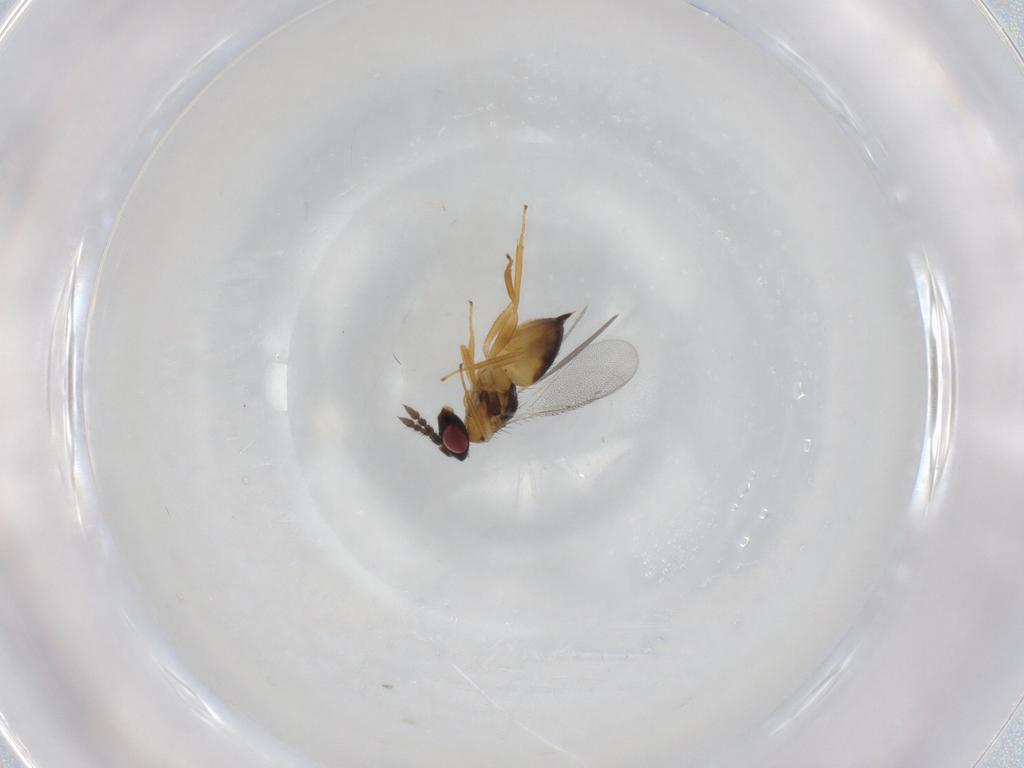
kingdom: Animalia
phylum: Arthropoda
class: Insecta
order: Hymenoptera
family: Eulophidae
